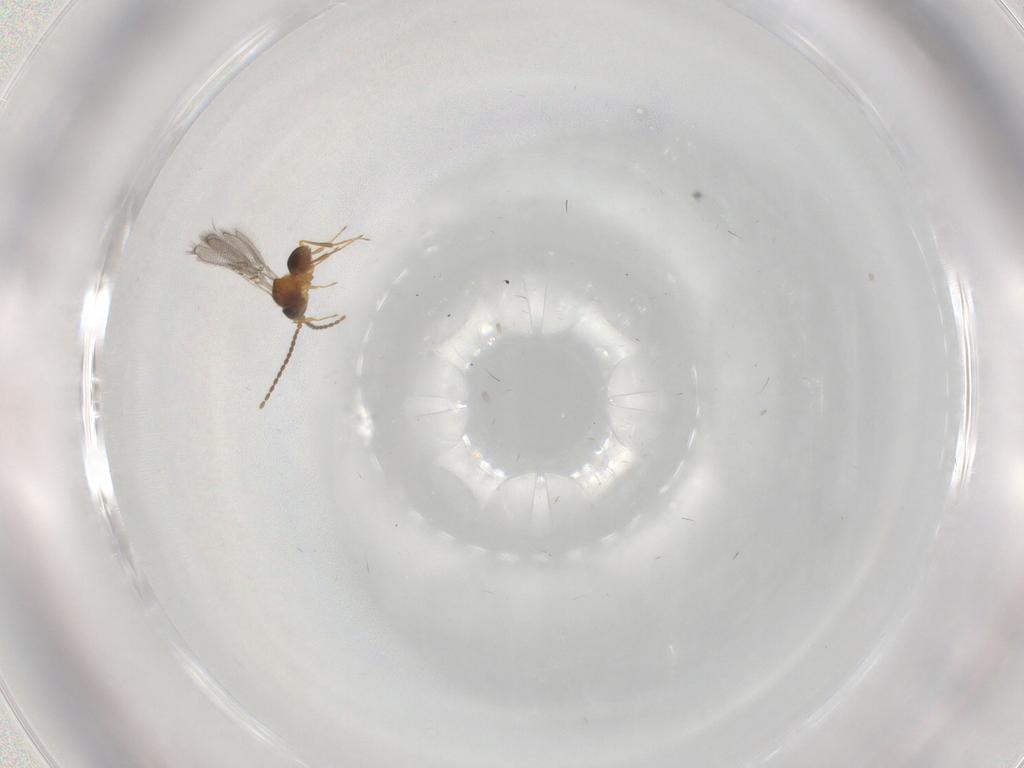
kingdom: Animalia
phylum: Arthropoda
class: Insecta
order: Hymenoptera
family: Figitidae
